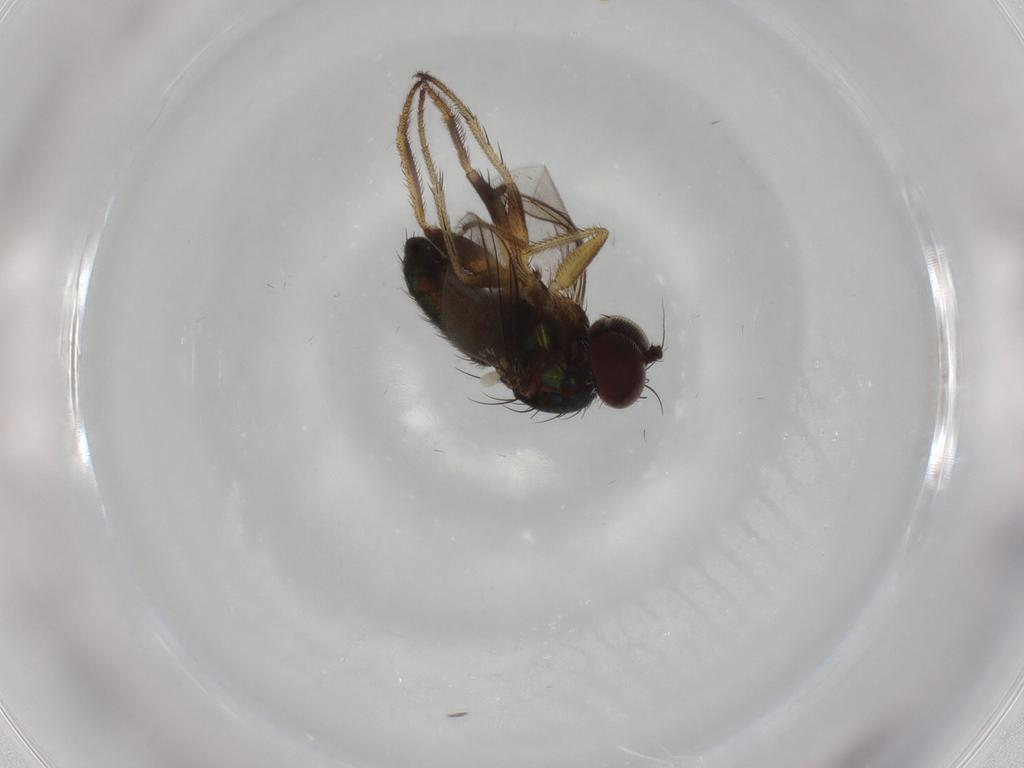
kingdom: Animalia
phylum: Arthropoda
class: Insecta
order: Diptera
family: Dolichopodidae
